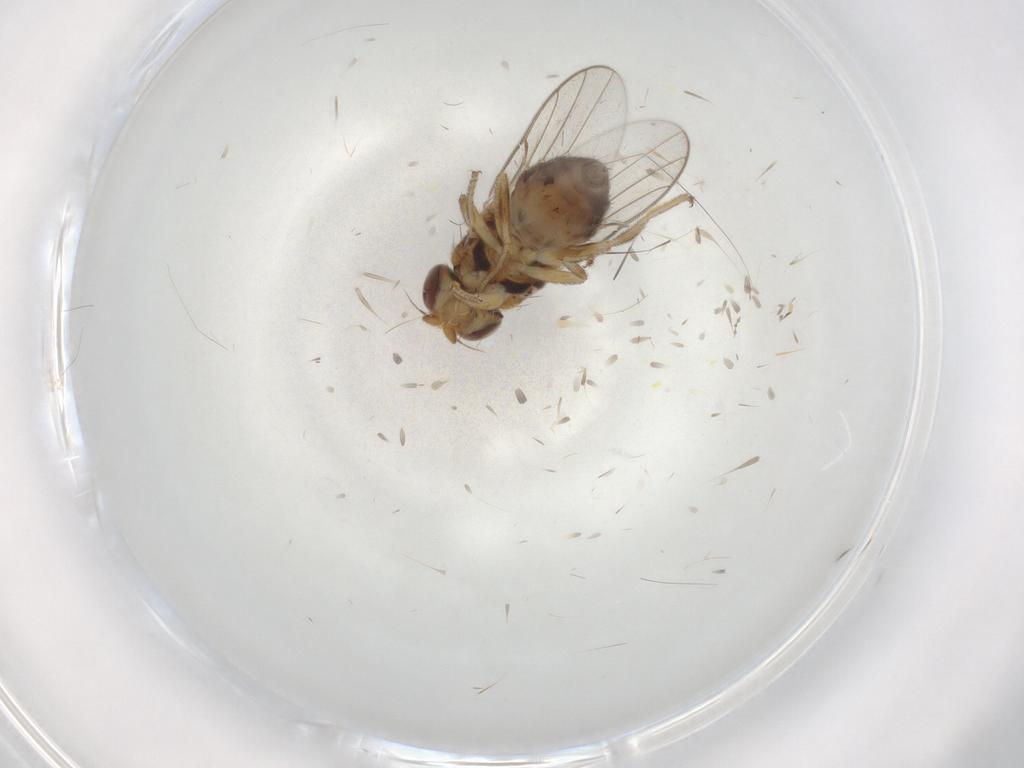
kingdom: Animalia
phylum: Arthropoda
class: Insecta
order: Diptera
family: Chloropidae
